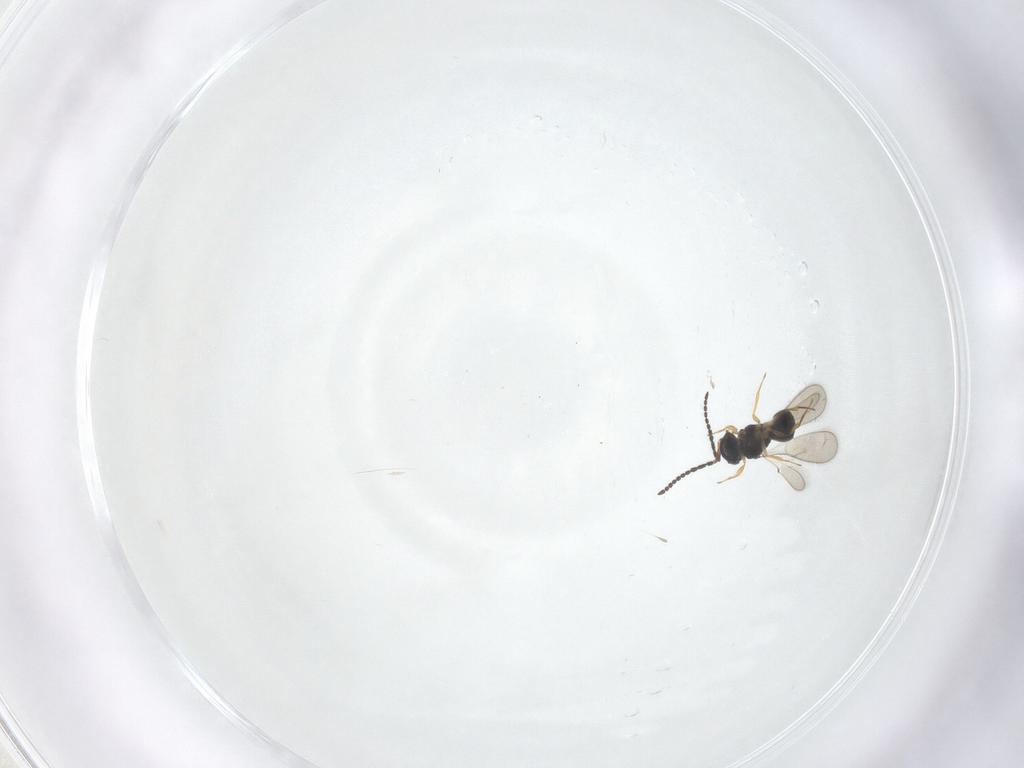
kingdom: Animalia
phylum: Arthropoda
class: Insecta
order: Hymenoptera
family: Scelionidae
